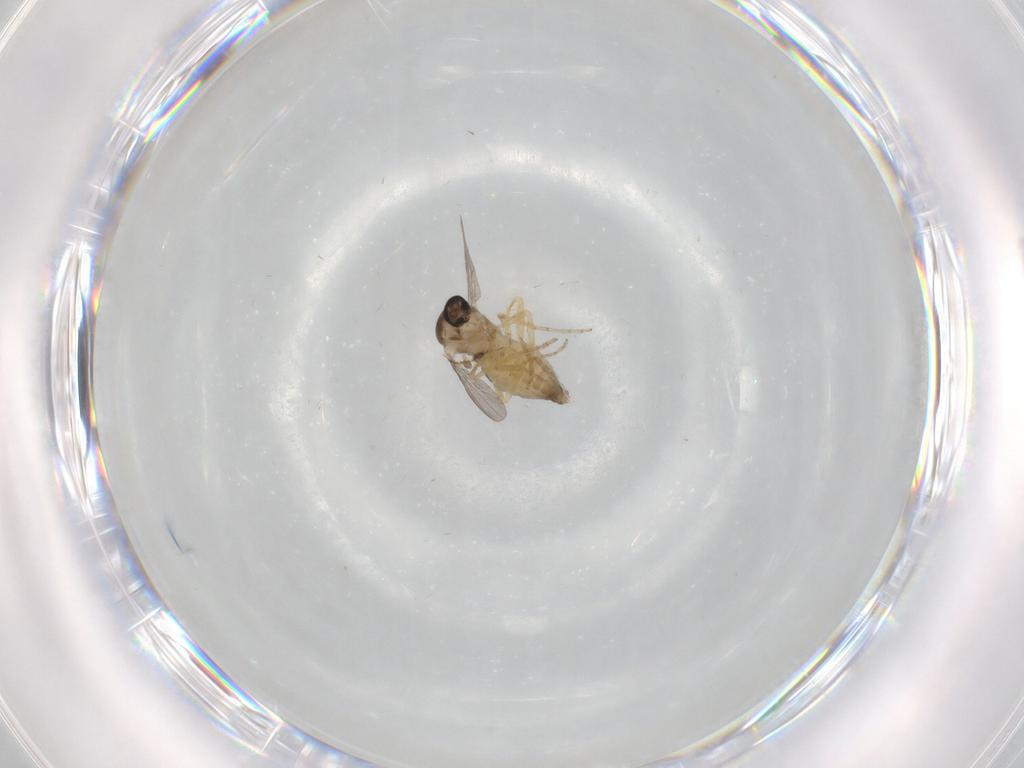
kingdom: Animalia
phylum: Arthropoda
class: Insecta
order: Diptera
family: Ceratopogonidae
